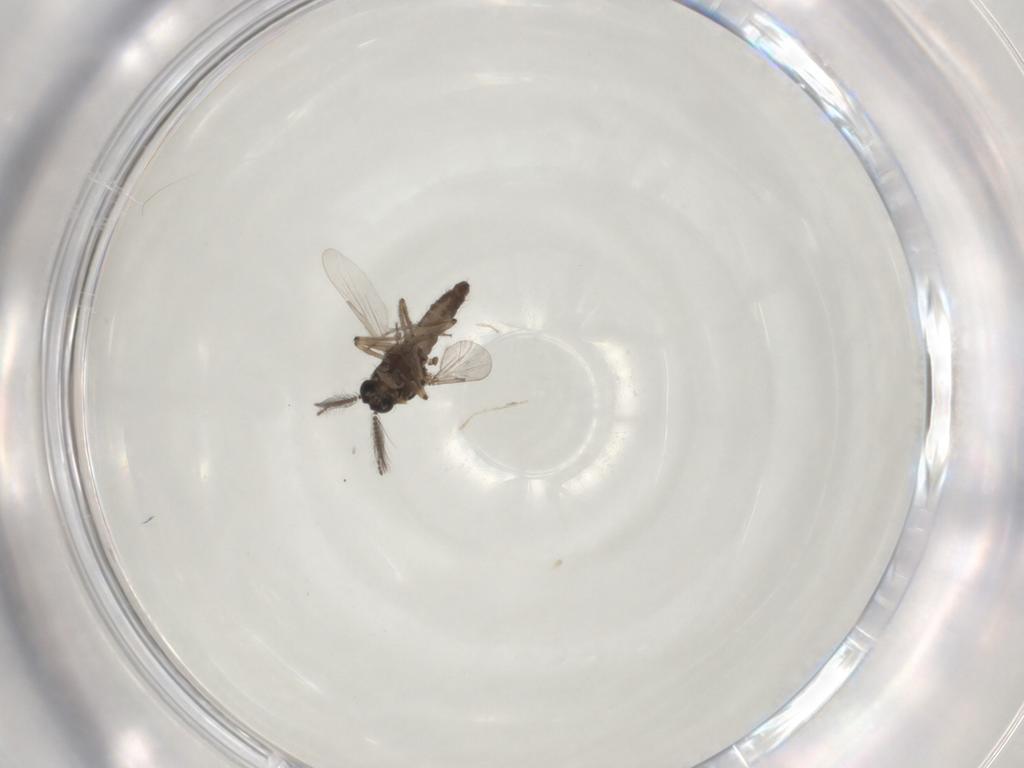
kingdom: Animalia
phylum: Arthropoda
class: Insecta
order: Diptera
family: Ceratopogonidae
